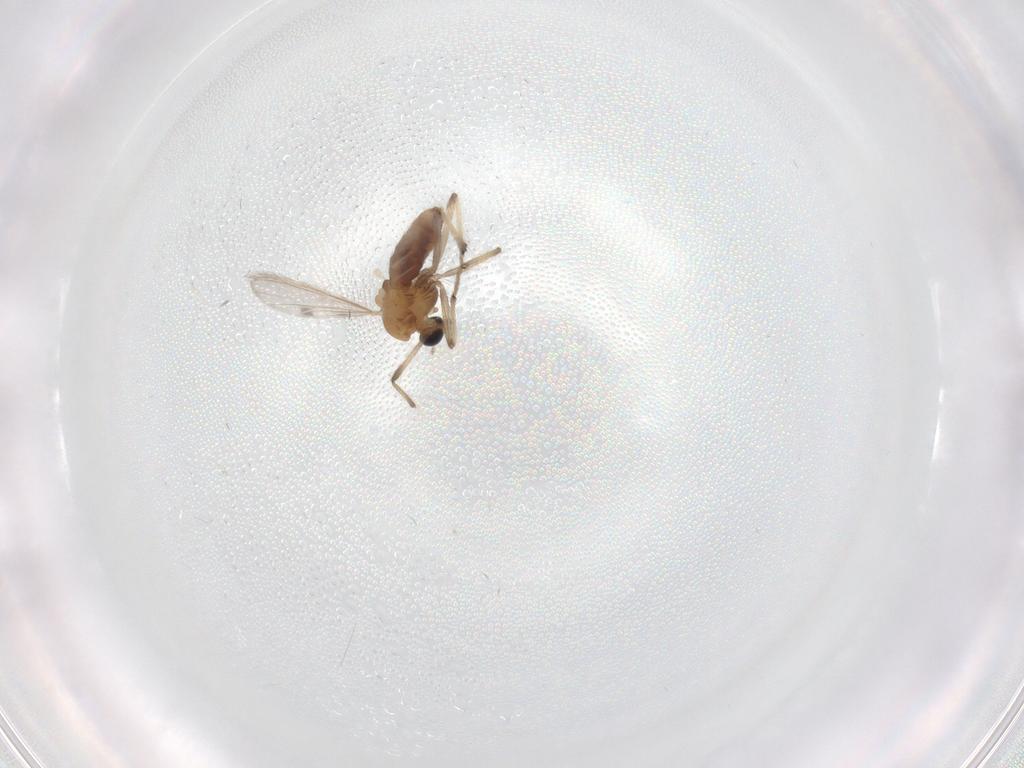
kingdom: Animalia
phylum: Arthropoda
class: Insecta
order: Diptera
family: Chironomidae
